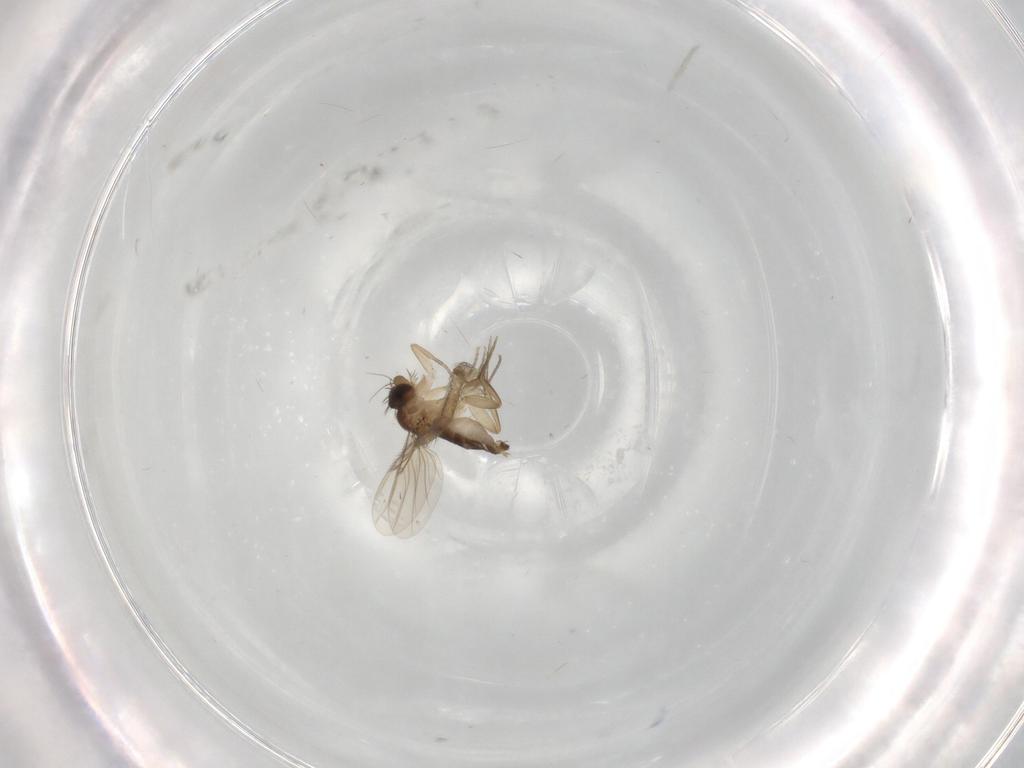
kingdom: Animalia
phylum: Arthropoda
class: Insecta
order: Diptera
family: Phoridae
